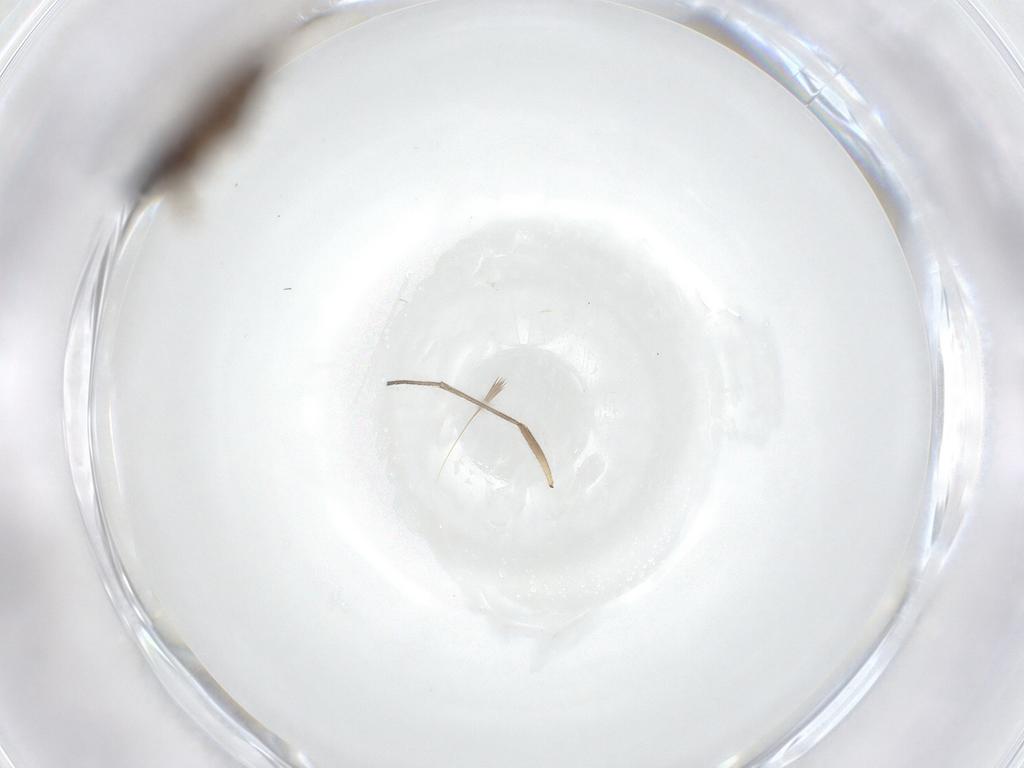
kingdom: Animalia
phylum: Arthropoda
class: Insecta
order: Diptera
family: Sciaridae
